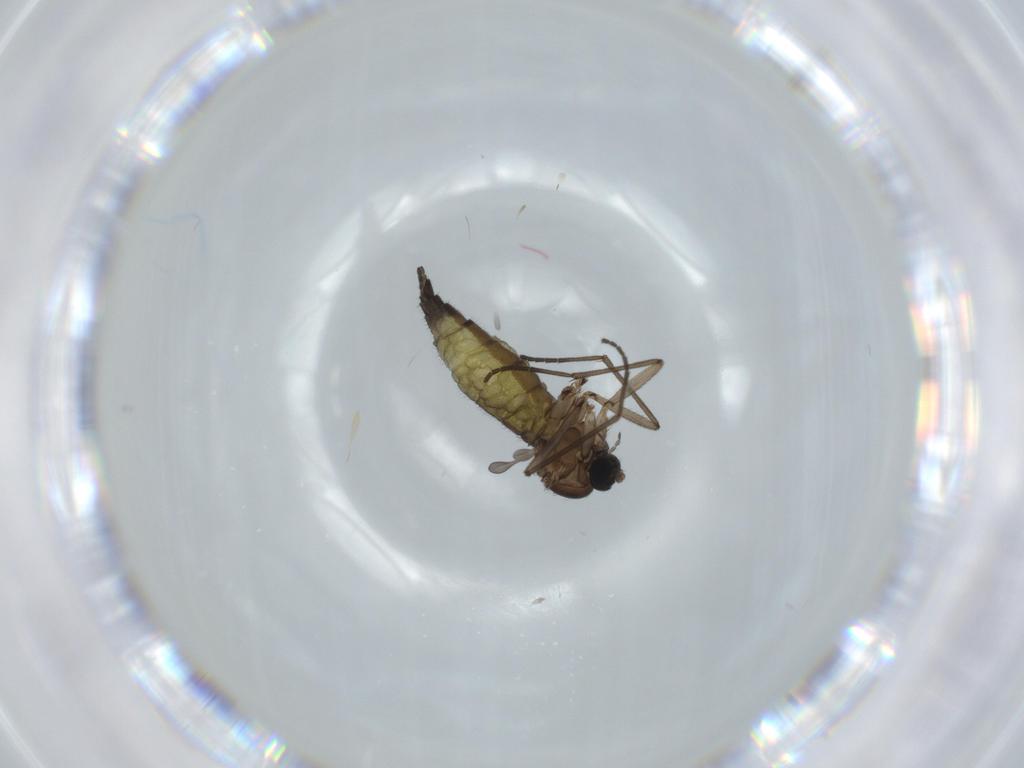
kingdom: Animalia
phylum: Arthropoda
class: Insecta
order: Diptera
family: Sciaridae
